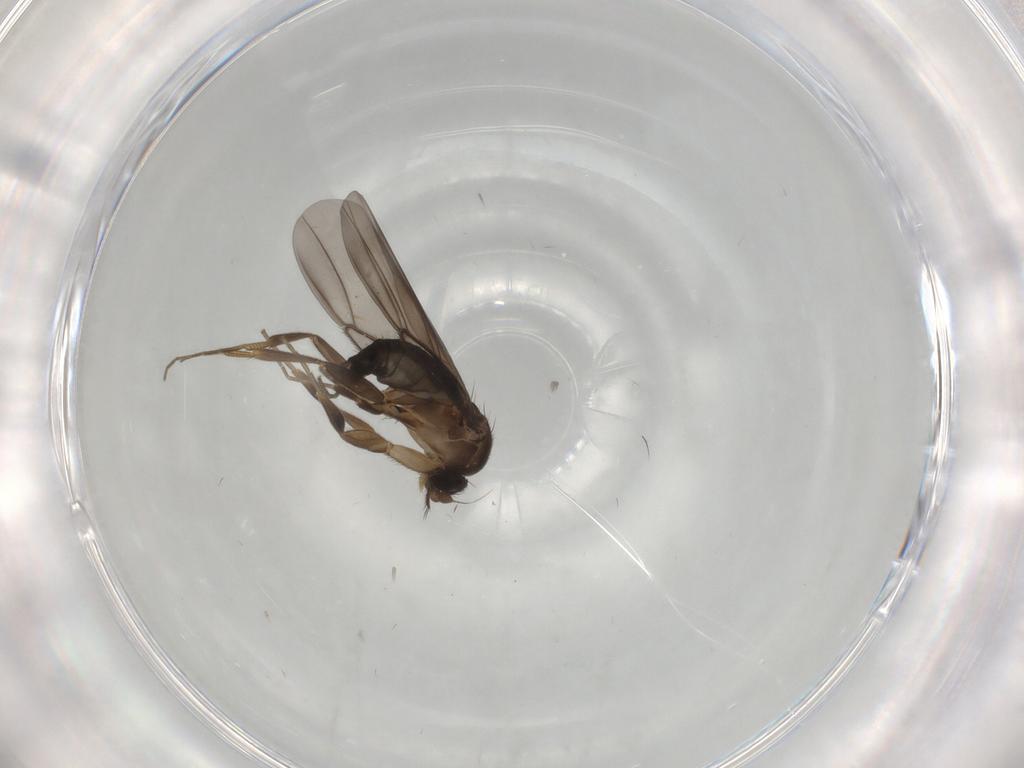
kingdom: Animalia
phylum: Arthropoda
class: Insecta
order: Diptera
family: Phoridae
